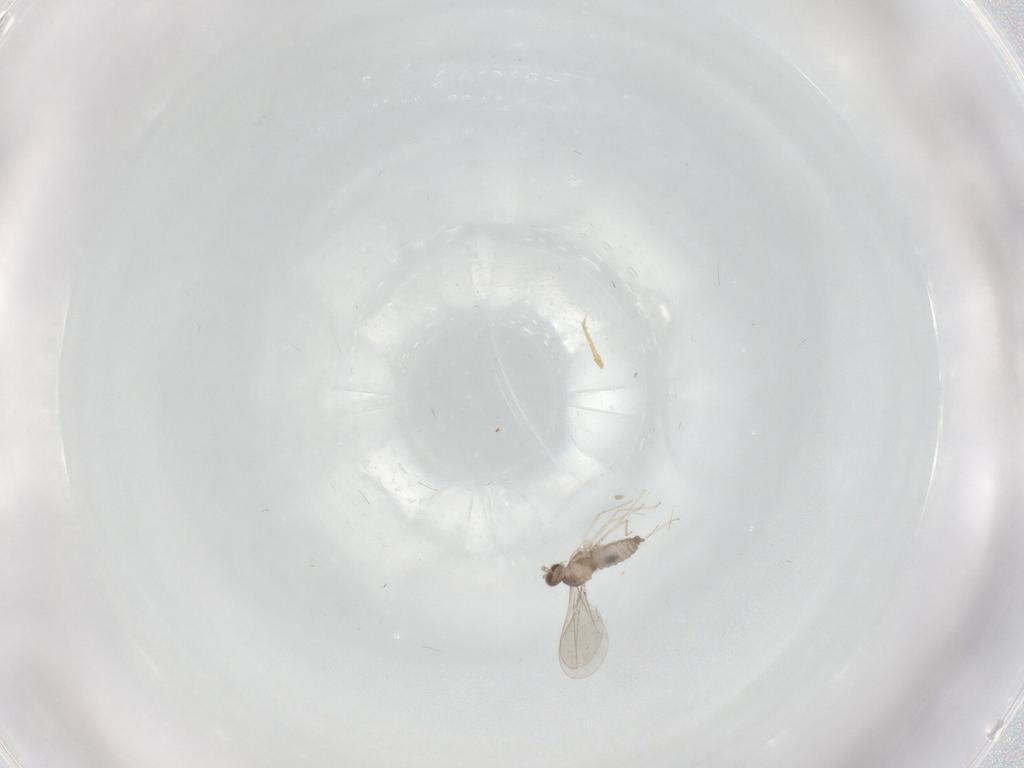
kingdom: Animalia
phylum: Arthropoda
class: Insecta
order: Diptera
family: Cecidomyiidae
